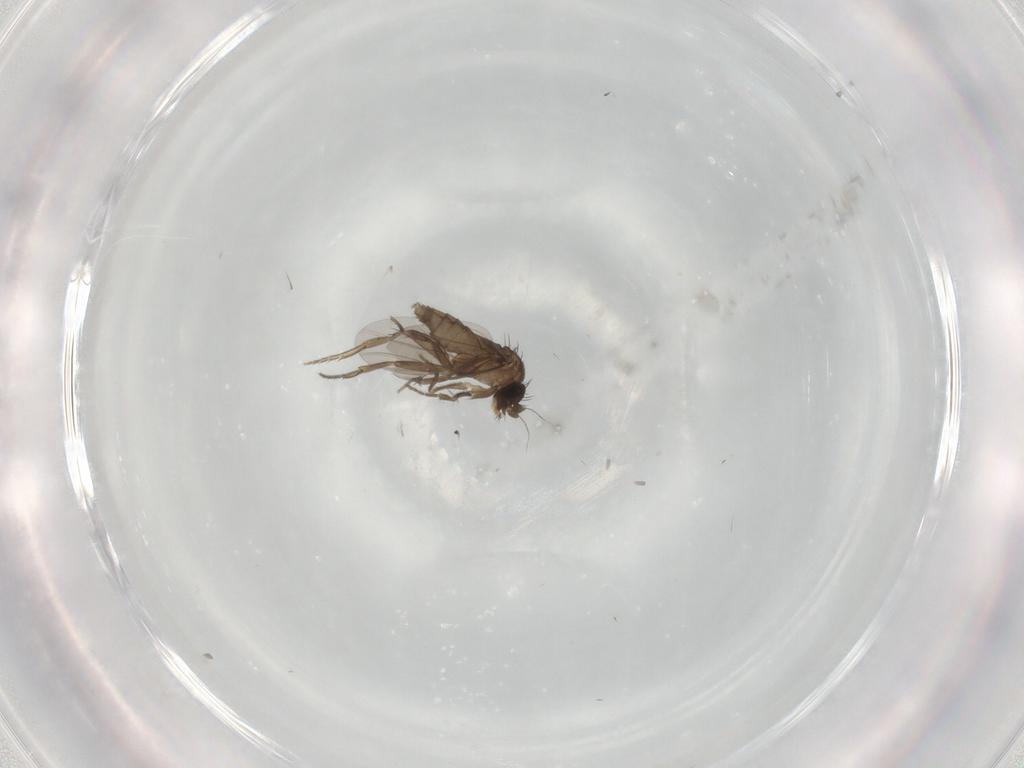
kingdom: Animalia
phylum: Arthropoda
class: Insecta
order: Diptera
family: Phoridae
